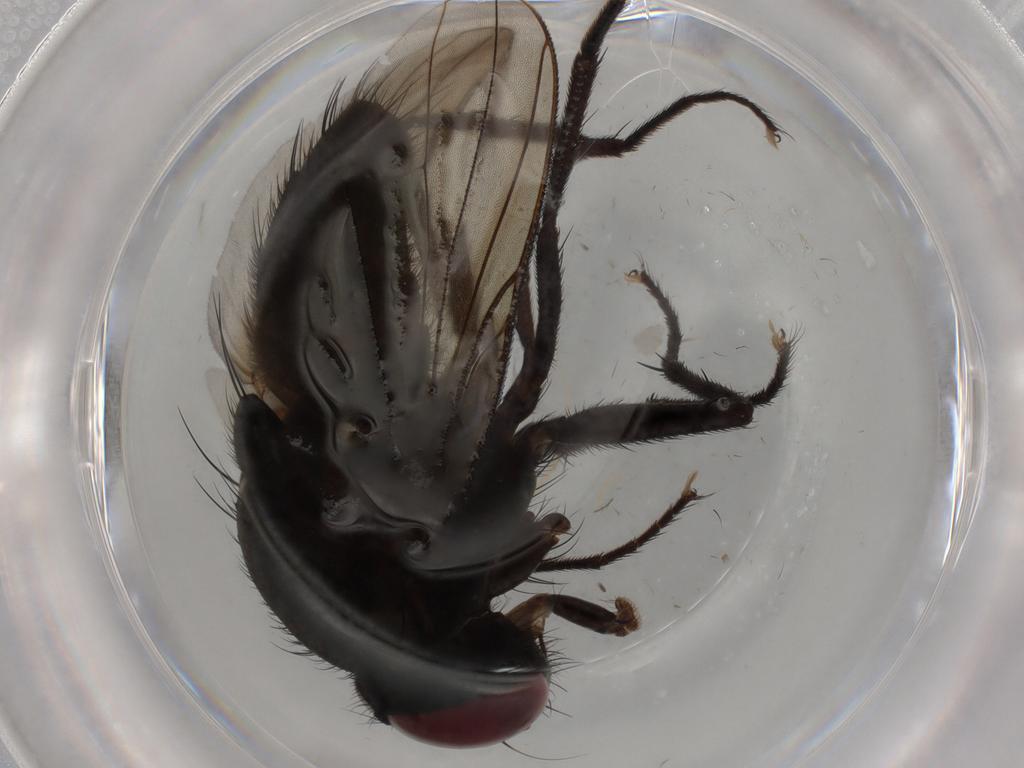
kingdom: Animalia
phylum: Arthropoda
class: Insecta
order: Diptera
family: Muscidae
